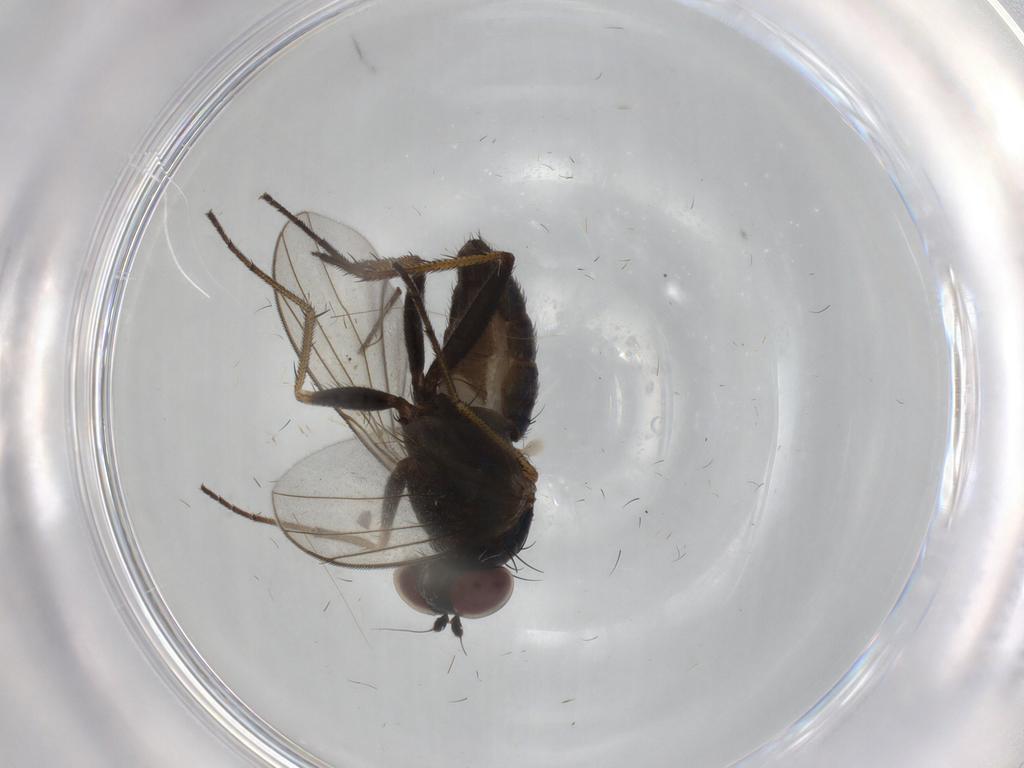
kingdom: Animalia
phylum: Arthropoda
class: Insecta
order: Diptera
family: Dolichopodidae
